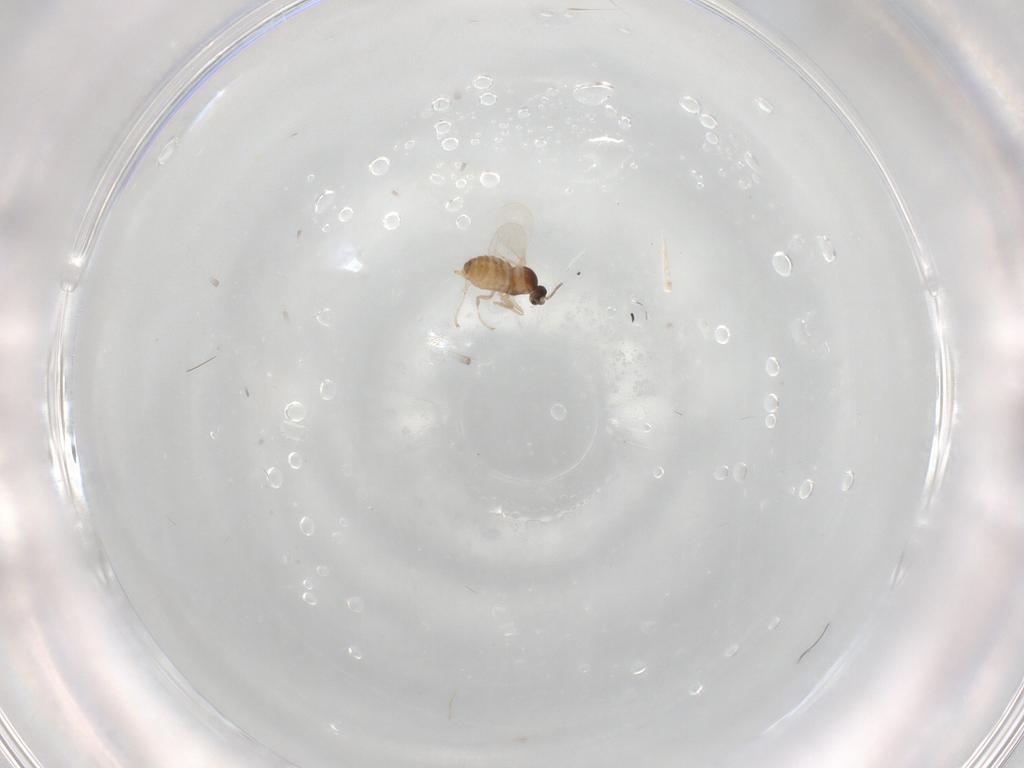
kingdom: Animalia
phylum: Arthropoda
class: Insecta
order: Diptera
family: Cecidomyiidae
